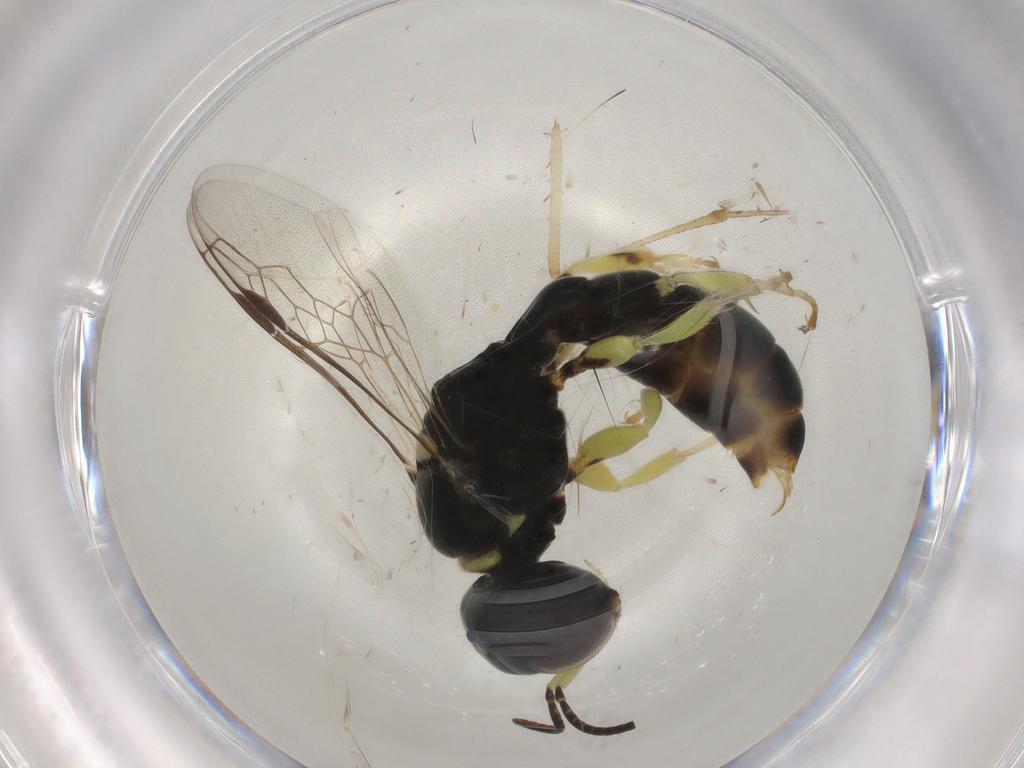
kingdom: Animalia
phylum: Arthropoda
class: Insecta
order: Hymenoptera
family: Crabronidae
